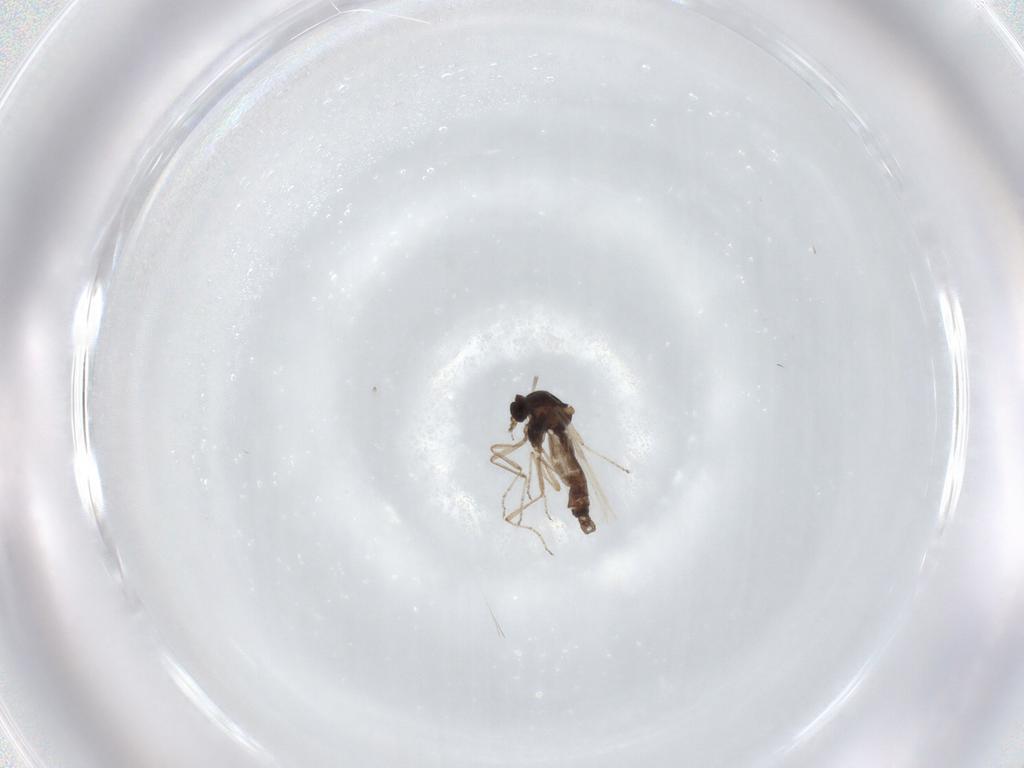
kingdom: Animalia
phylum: Arthropoda
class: Insecta
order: Diptera
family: Ceratopogonidae
